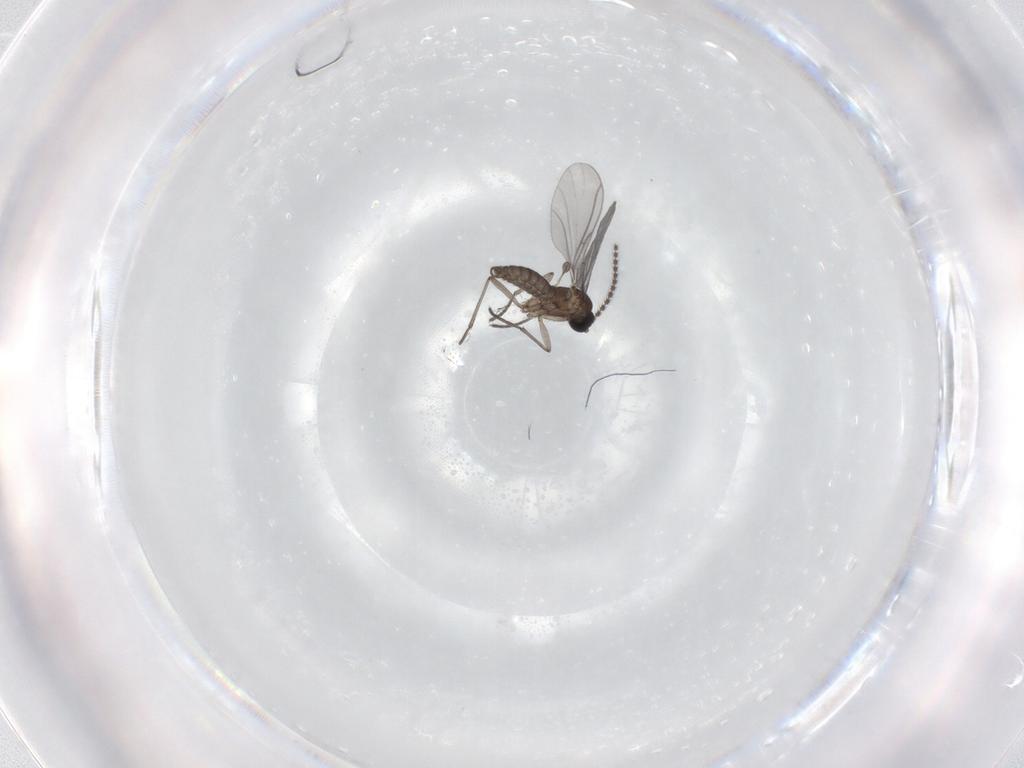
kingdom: Animalia
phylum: Arthropoda
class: Insecta
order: Diptera
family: Sciaridae
